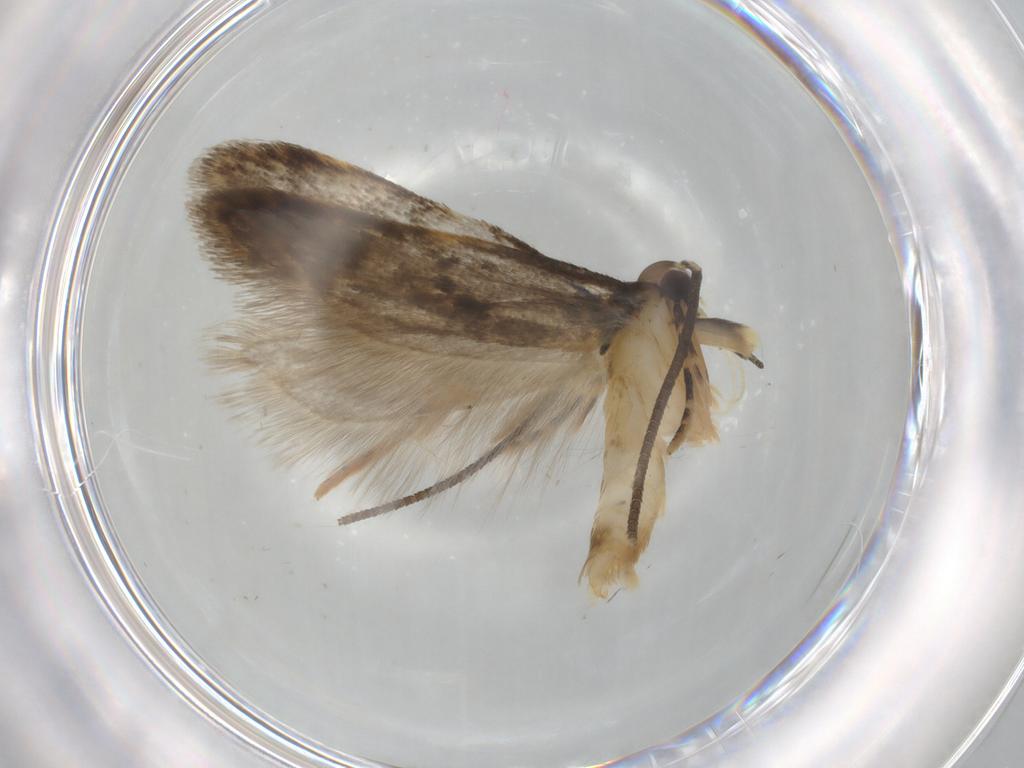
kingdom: Animalia
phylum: Arthropoda
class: Insecta
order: Lepidoptera
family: Autostichidae
